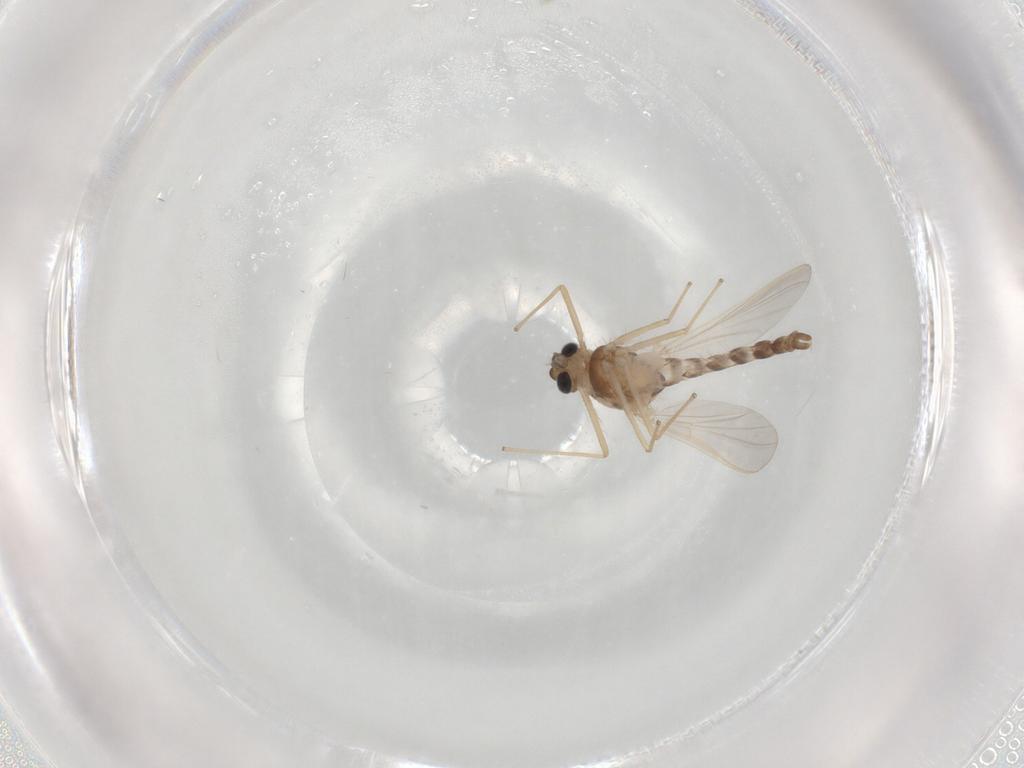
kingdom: Animalia
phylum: Arthropoda
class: Insecta
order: Diptera
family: Chironomidae
